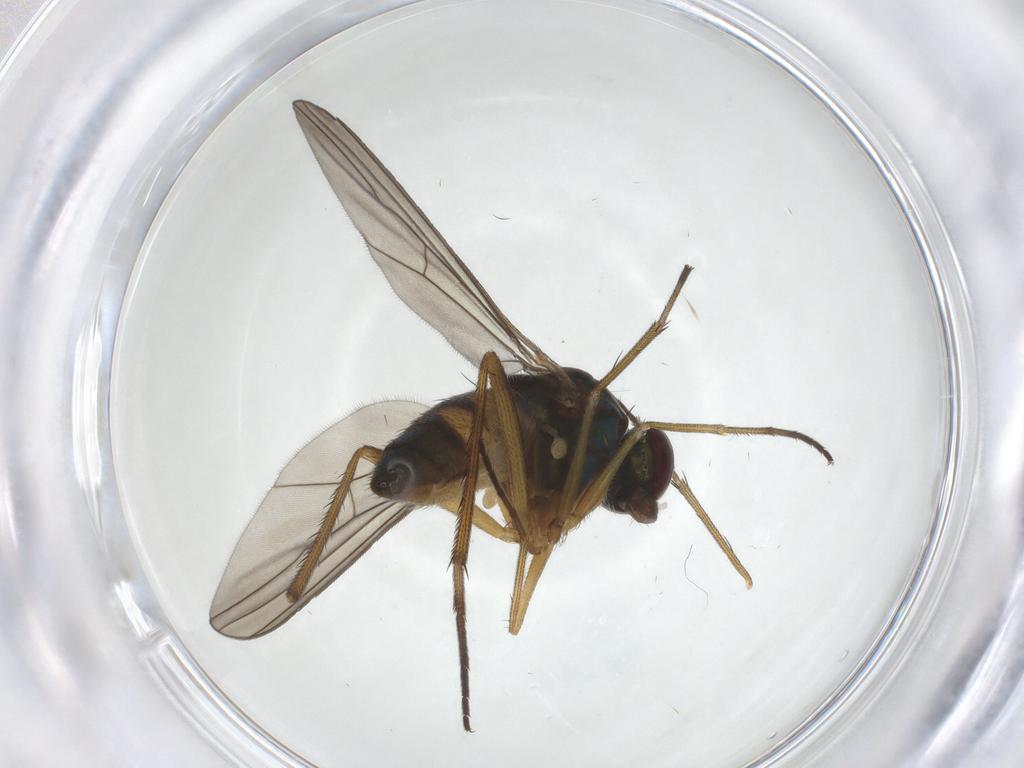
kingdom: Animalia
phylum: Arthropoda
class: Insecta
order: Diptera
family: Dolichopodidae
